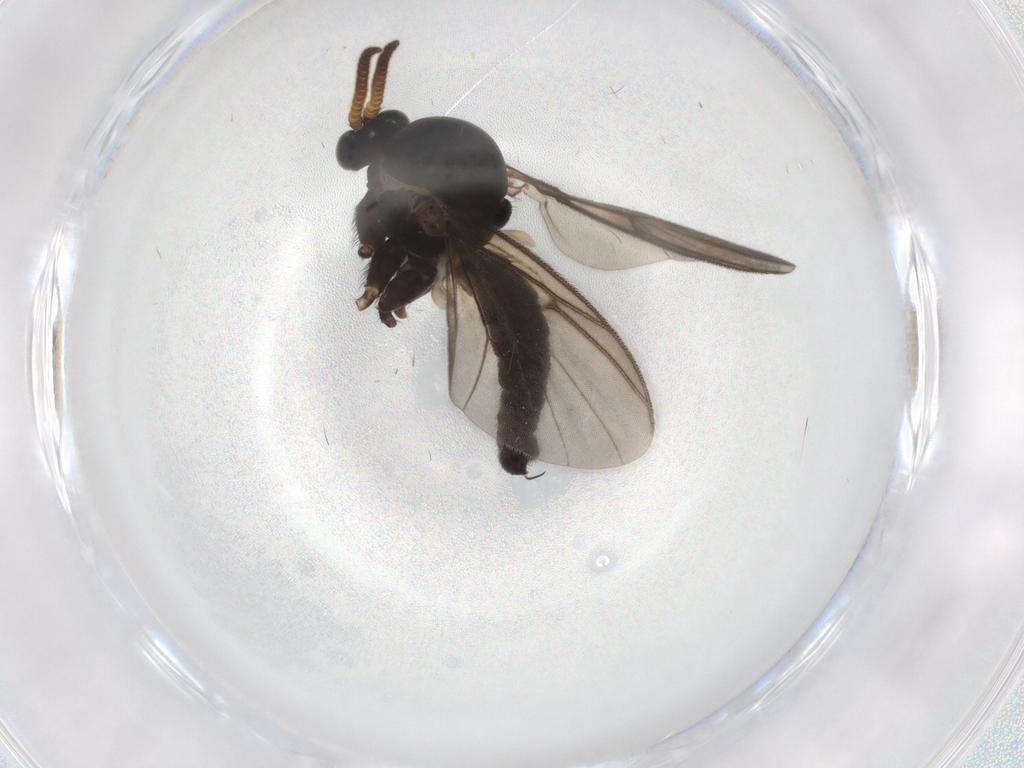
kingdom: Animalia
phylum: Arthropoda
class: Insecta
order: Diptera
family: Mycetophilidae
